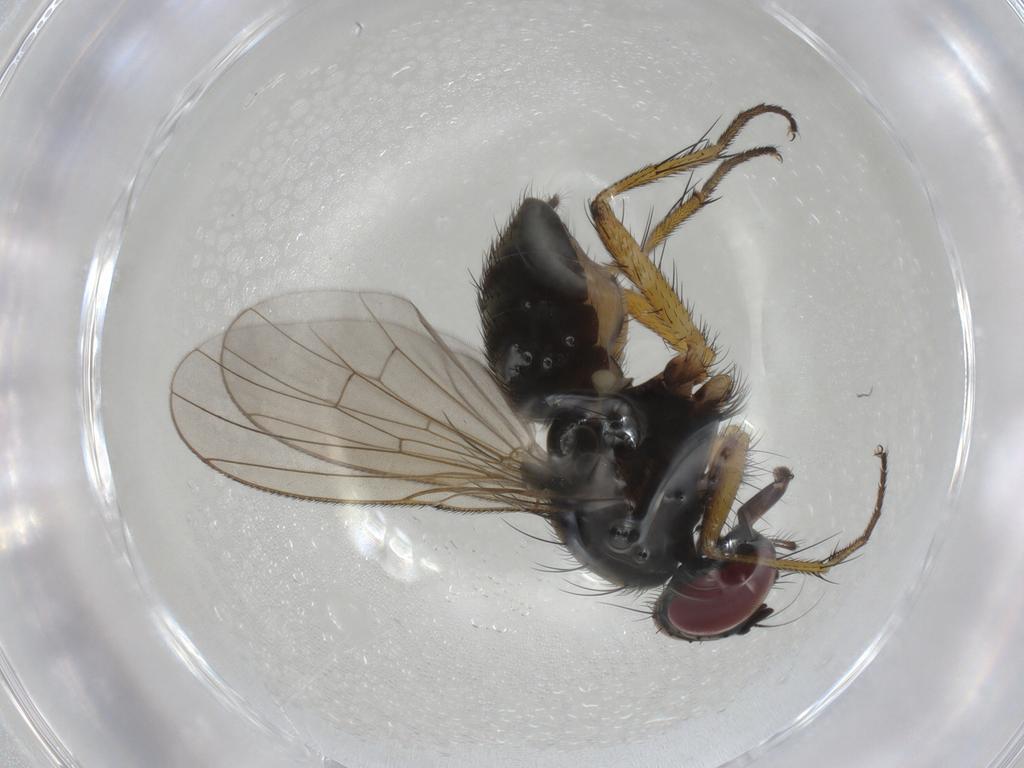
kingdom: Animalia
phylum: Arthropoda
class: Insecta
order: Diptera
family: Muscidae
